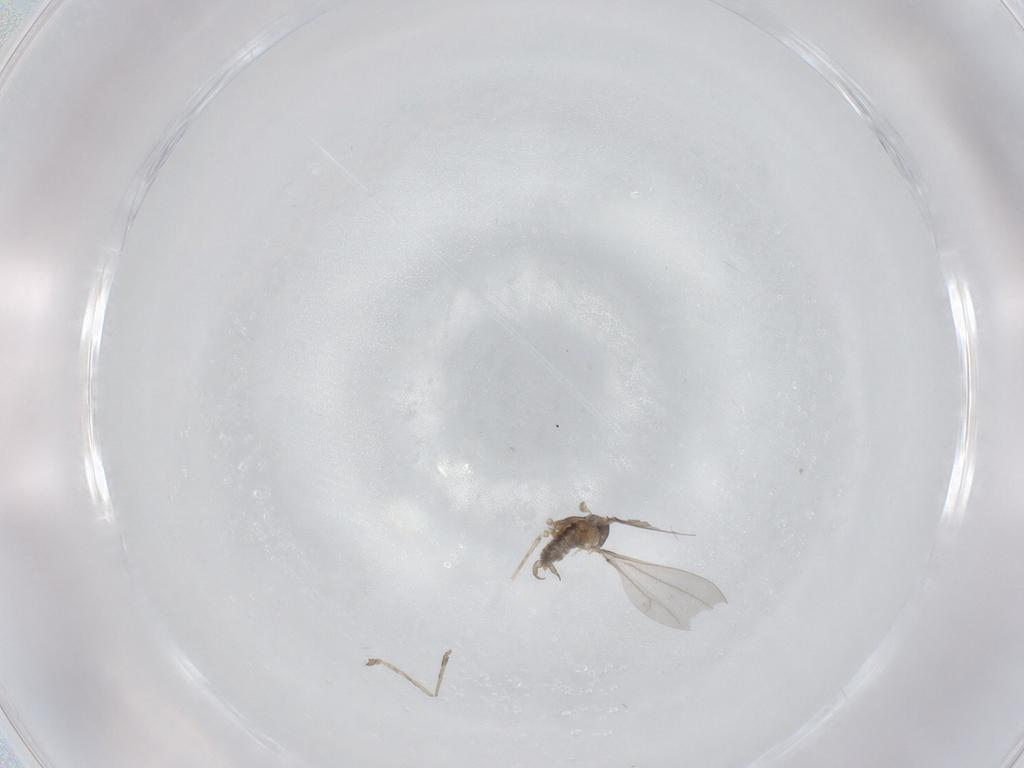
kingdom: Animalia
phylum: Arthropoda
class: Insecta
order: Diptera
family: Cecidomyiidae
